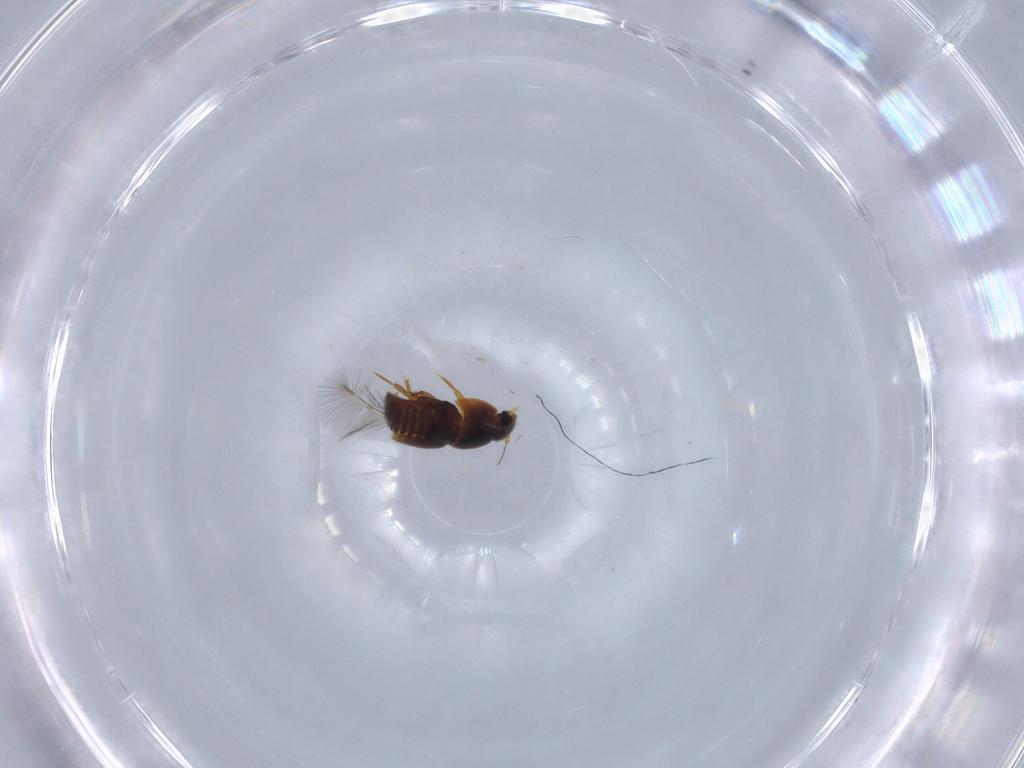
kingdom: Animalia
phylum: Arthropoda
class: Insecta
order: Coleoptera
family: Ptiliidae
